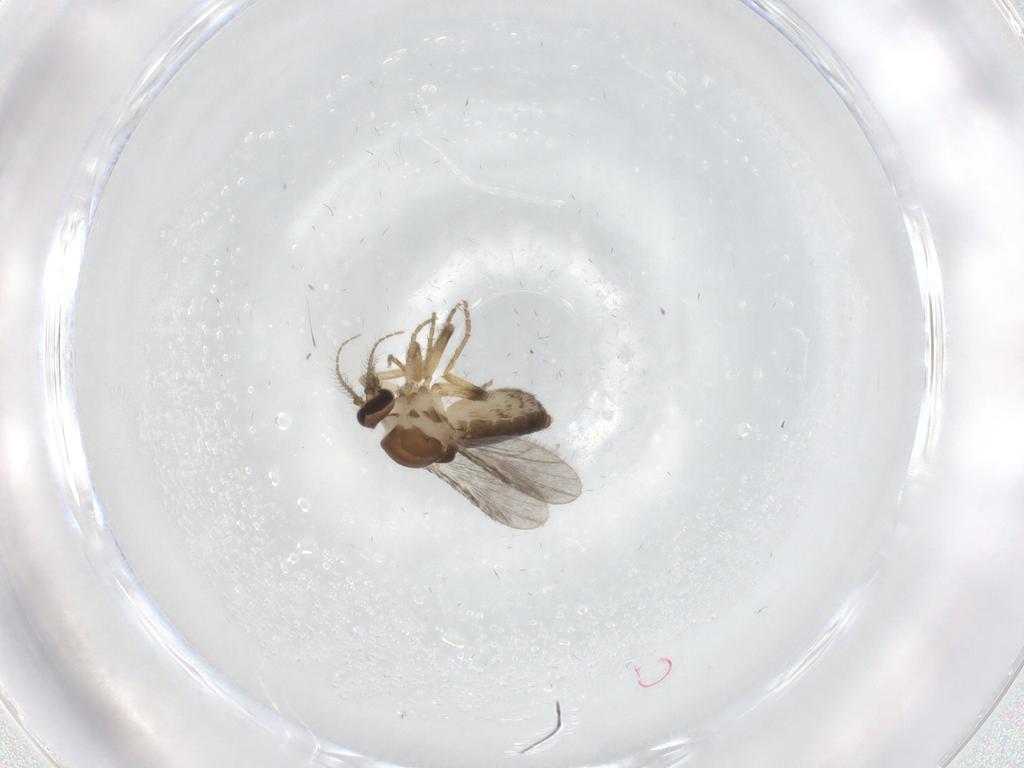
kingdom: Animalia
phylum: Arthropoda
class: Insecta
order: Diptera
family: Ceratopogonidae
